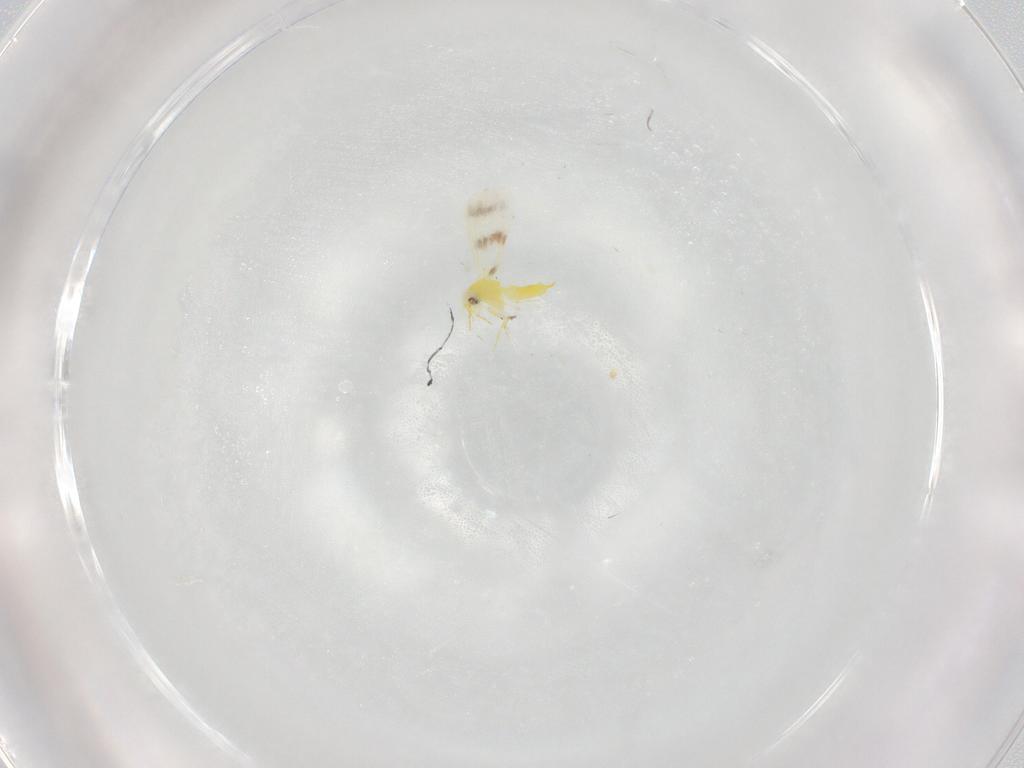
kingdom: Animalia
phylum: Arthropoda
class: Insecta
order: Hemiptera
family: Aleyrodidae
